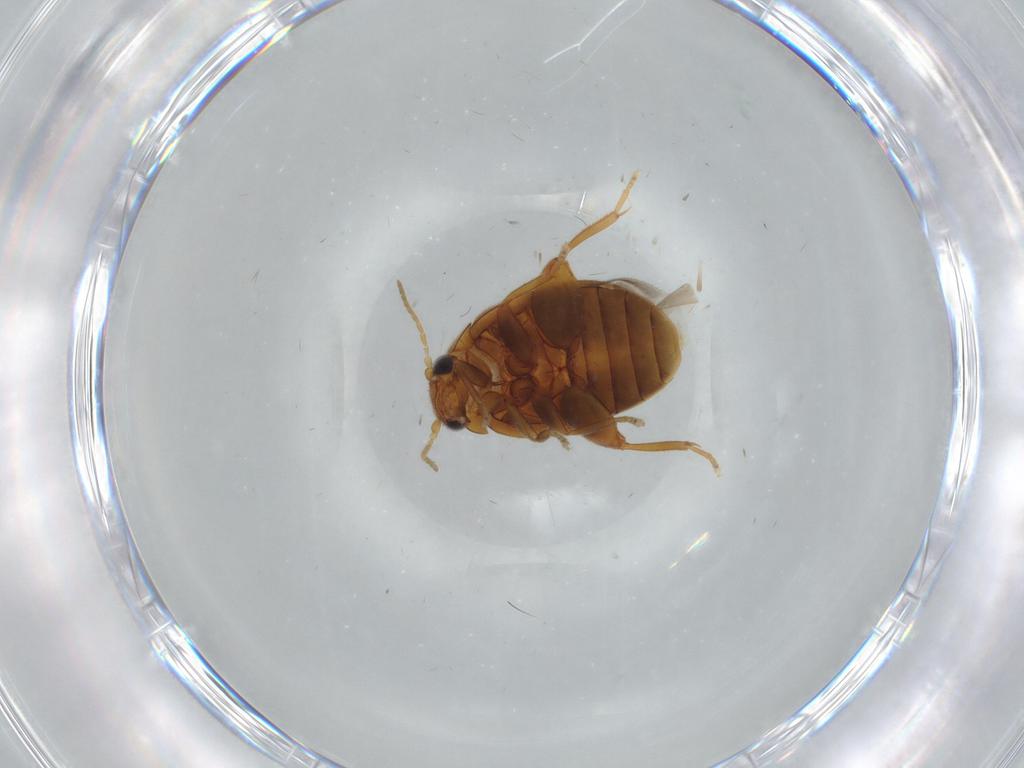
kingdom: Animalia
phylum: Arthropoda
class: Insecta
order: Coleoptera
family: Scirtidae
